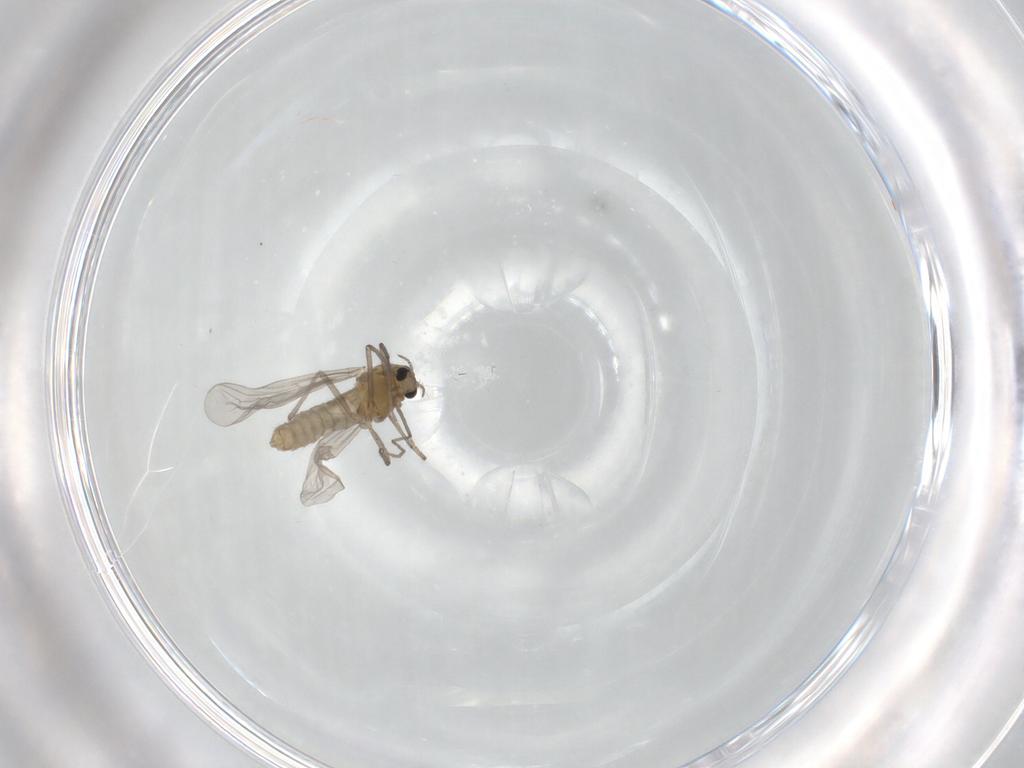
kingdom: Animalia
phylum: Arthropoda
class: Insecta
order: Diptera
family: Chironomidae
